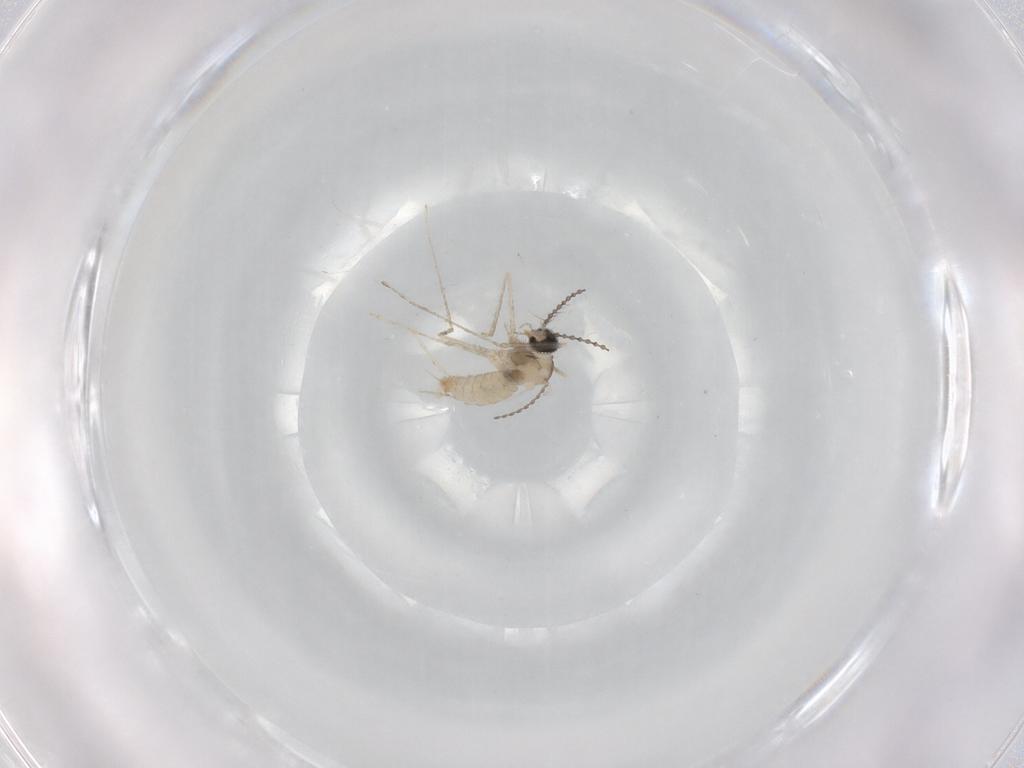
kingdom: Animalia
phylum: Arthropoda
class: Insecta
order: Diptera
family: Cecidomyiidae
